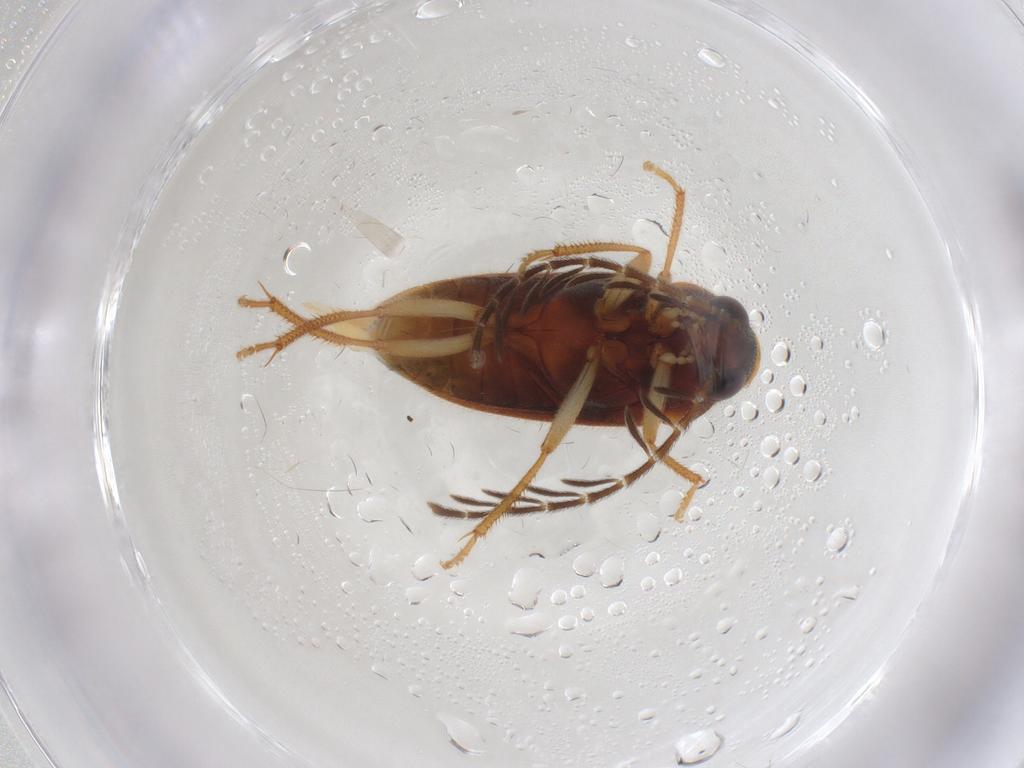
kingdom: Animalia
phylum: Arthropoda
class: Insecta
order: Coleoptera
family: Ptilodactylidae
